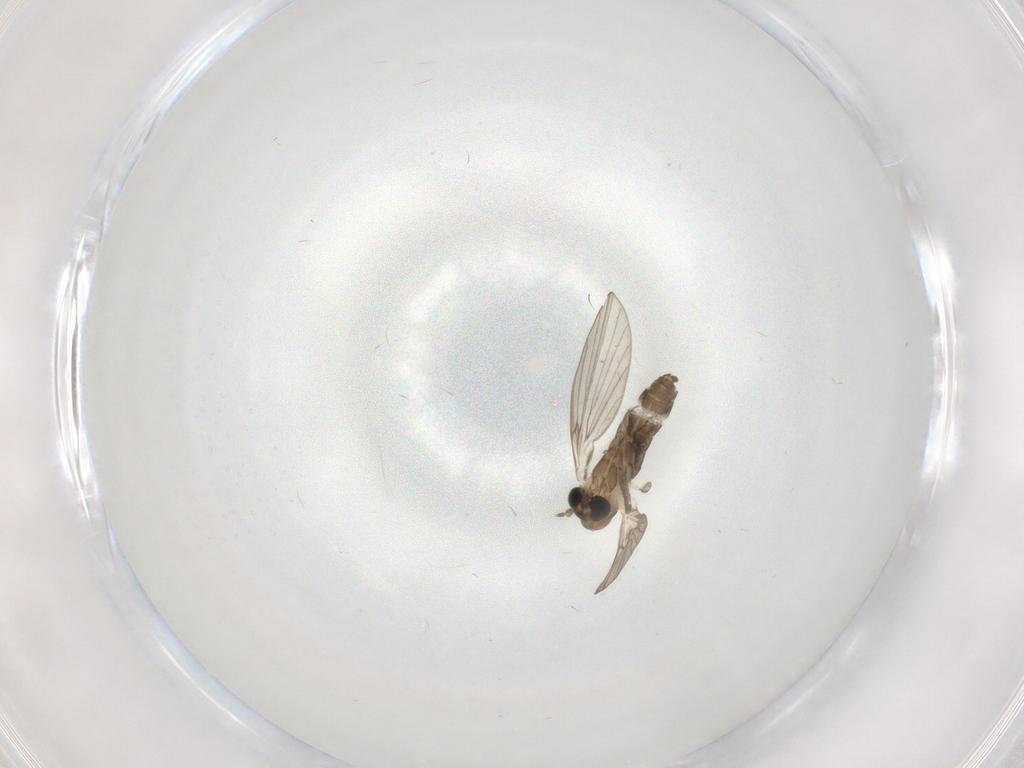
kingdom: Animalia
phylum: Arthropoda
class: Insecta
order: Diptera
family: Psychodidae
